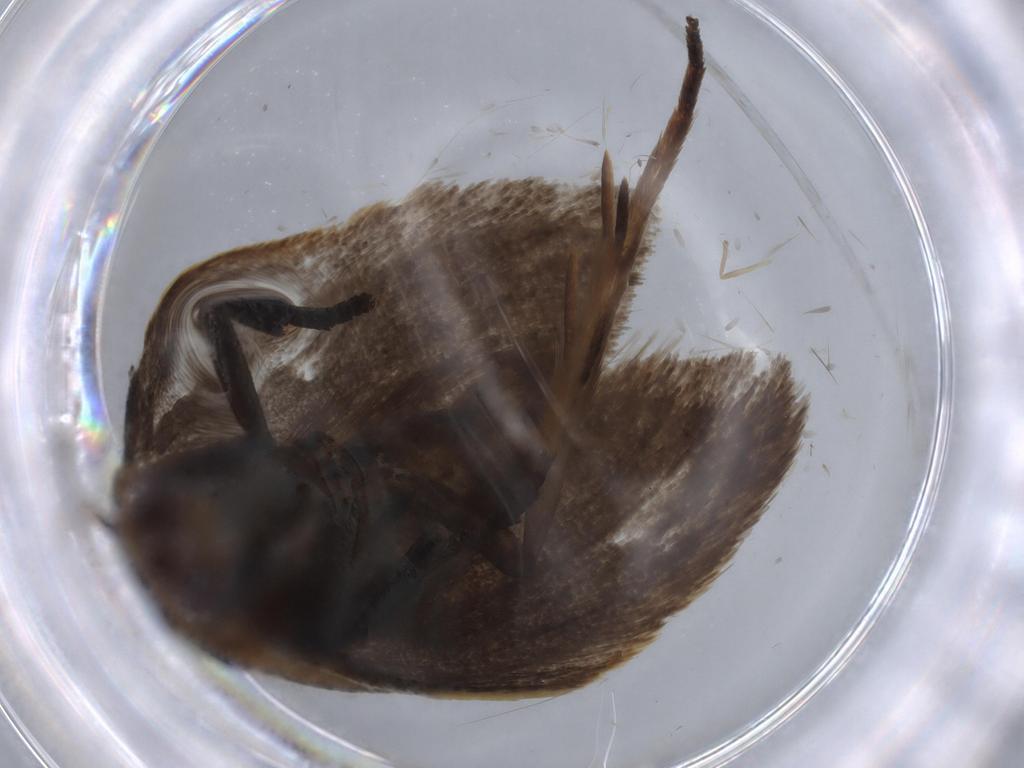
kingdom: Animalia
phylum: Arthropoda
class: Insecta
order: Lepidoptera
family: Oecophoridae
